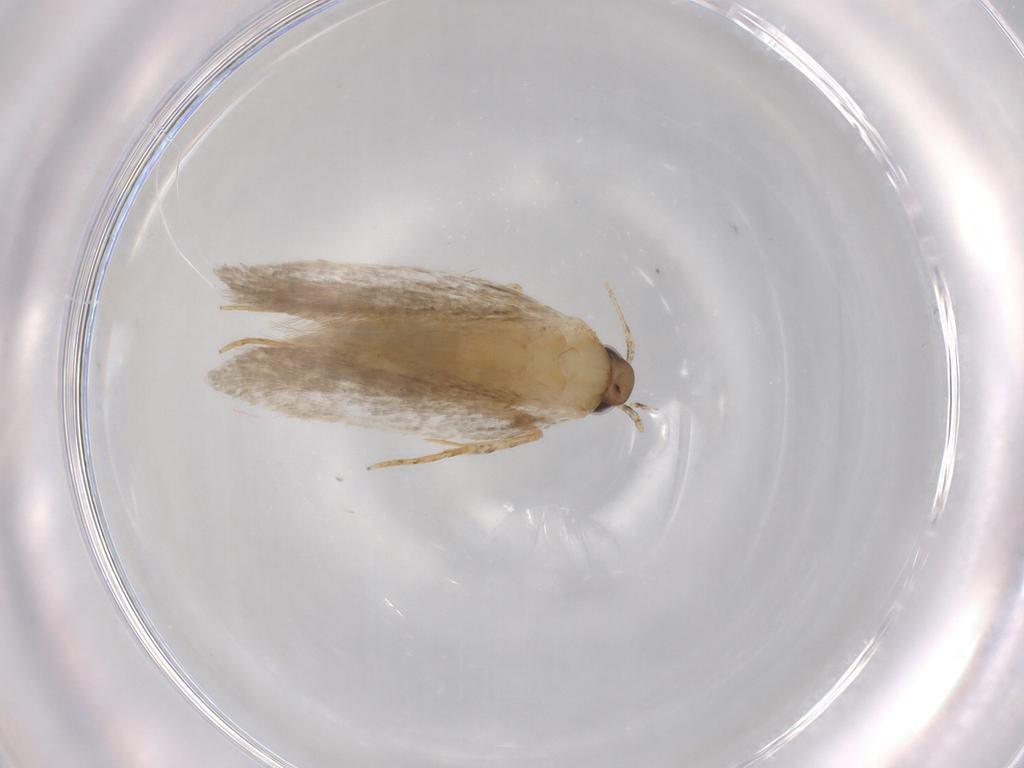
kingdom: Animalia
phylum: Arthropoda
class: Insecta
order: Lepidoptera
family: Autostichidae
